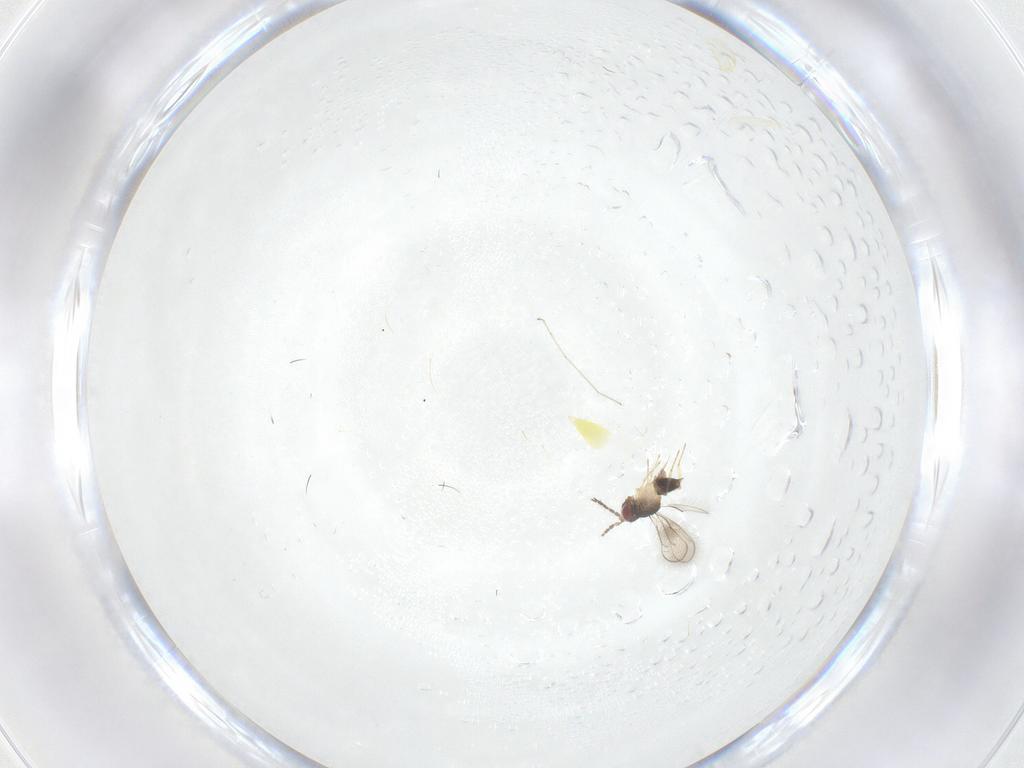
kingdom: Animalia
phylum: Arthropoda
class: Insecta
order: Hemiptera
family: Aleyrodidae
